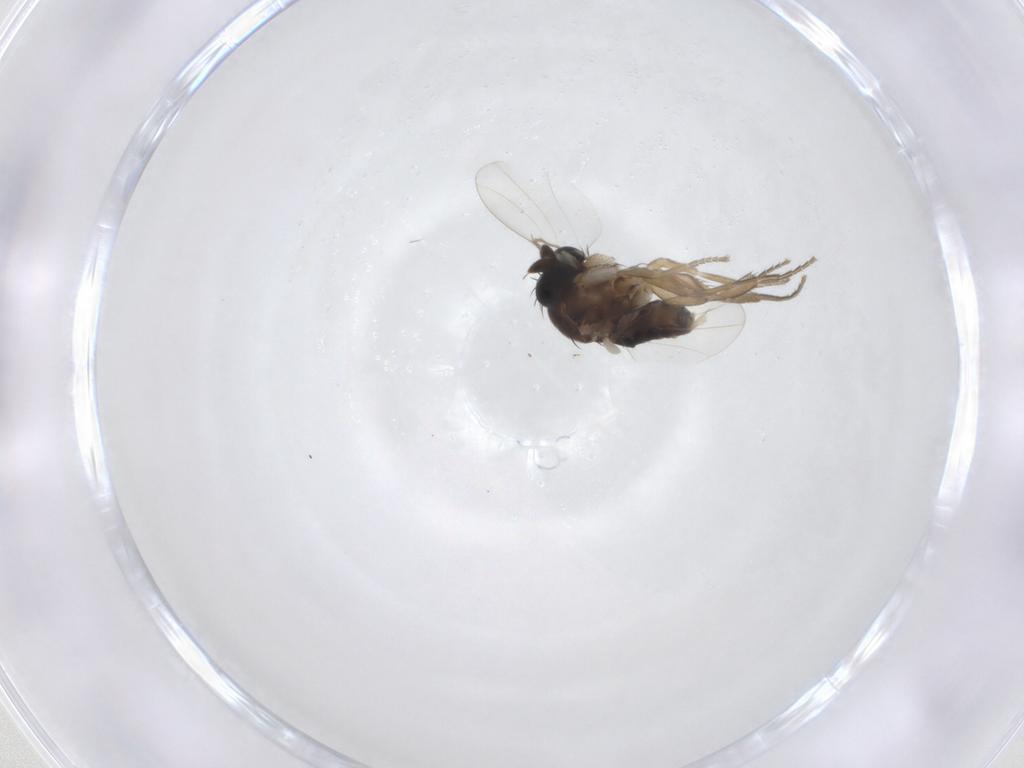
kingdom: Animalia
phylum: Arthropoda
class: Insecta
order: Diptera
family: Phoridae
